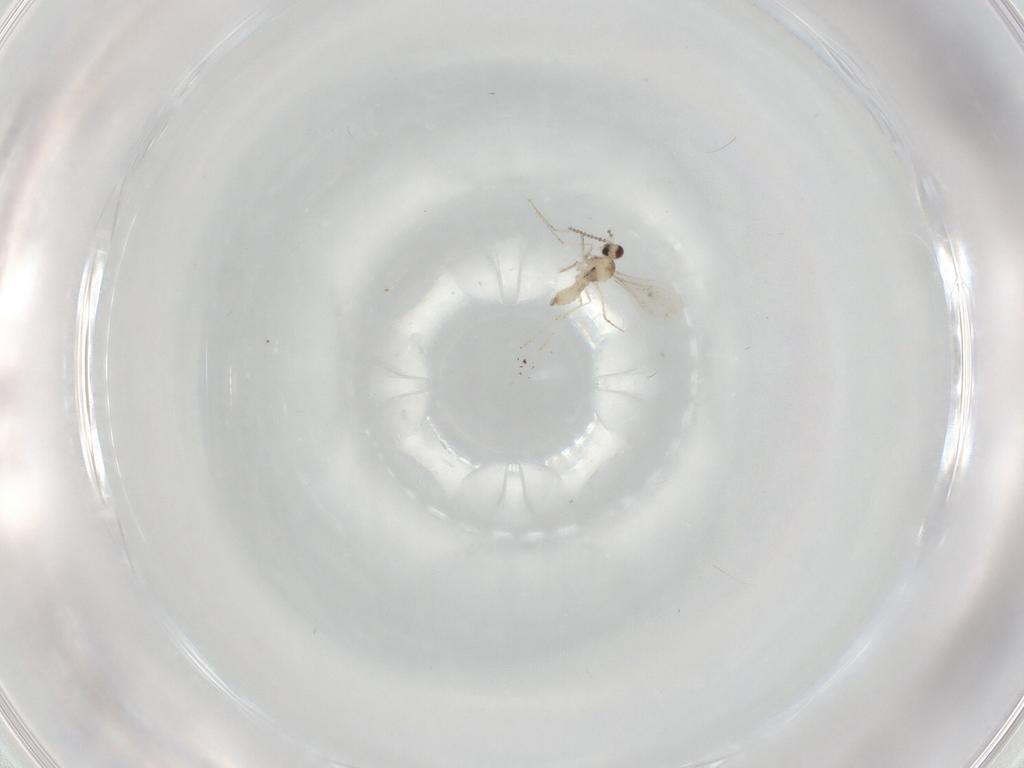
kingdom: Animalia
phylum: Arthropoda
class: Insecta
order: Diptera
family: Cecidomyiidae
